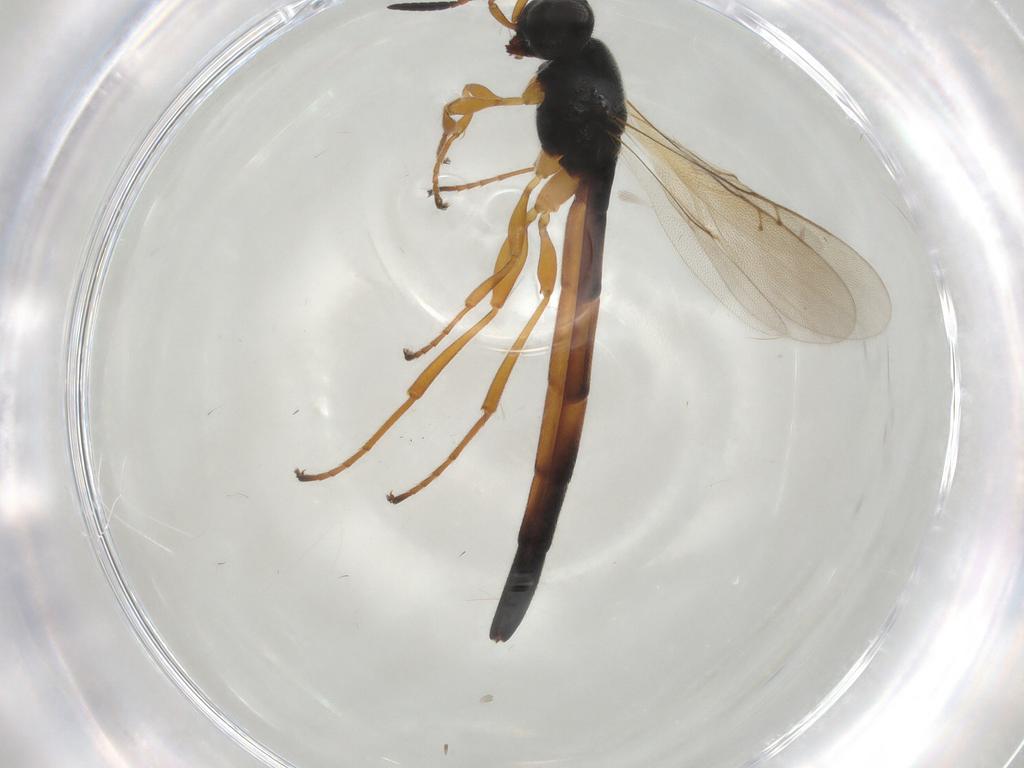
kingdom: Animalia
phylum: Arthropoda
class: Insecta
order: Hymenoptera
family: Scelionidae
